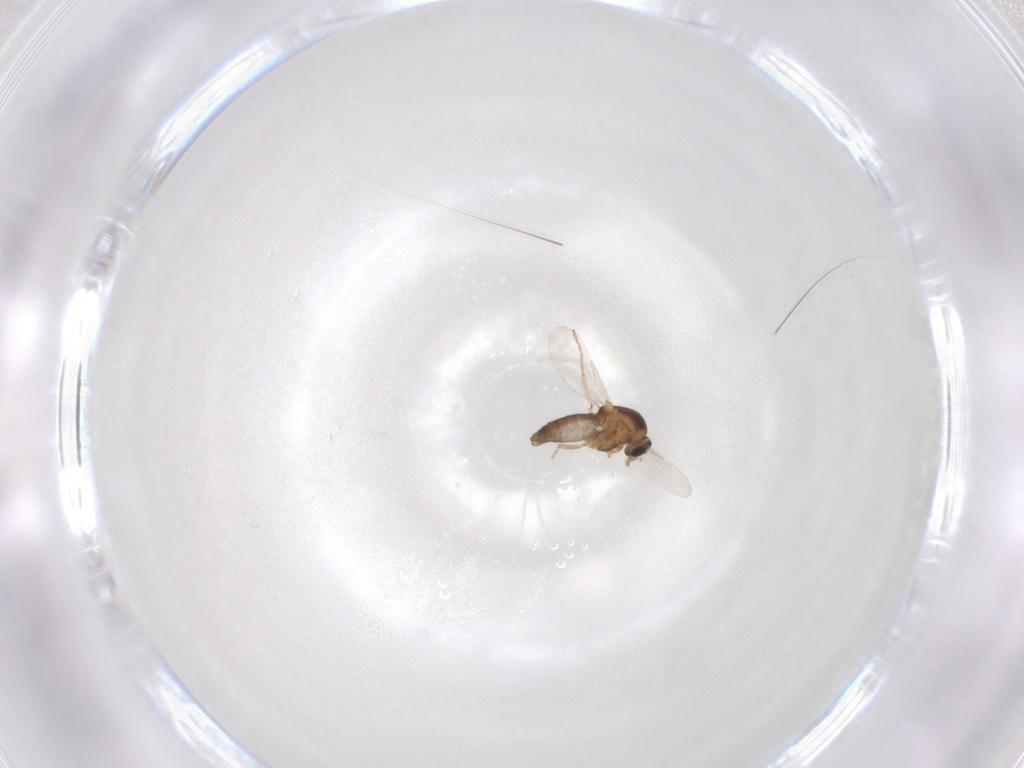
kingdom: Animalia
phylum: Arthropoda
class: Insecta
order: Diptera
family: Ceratopogonidae
